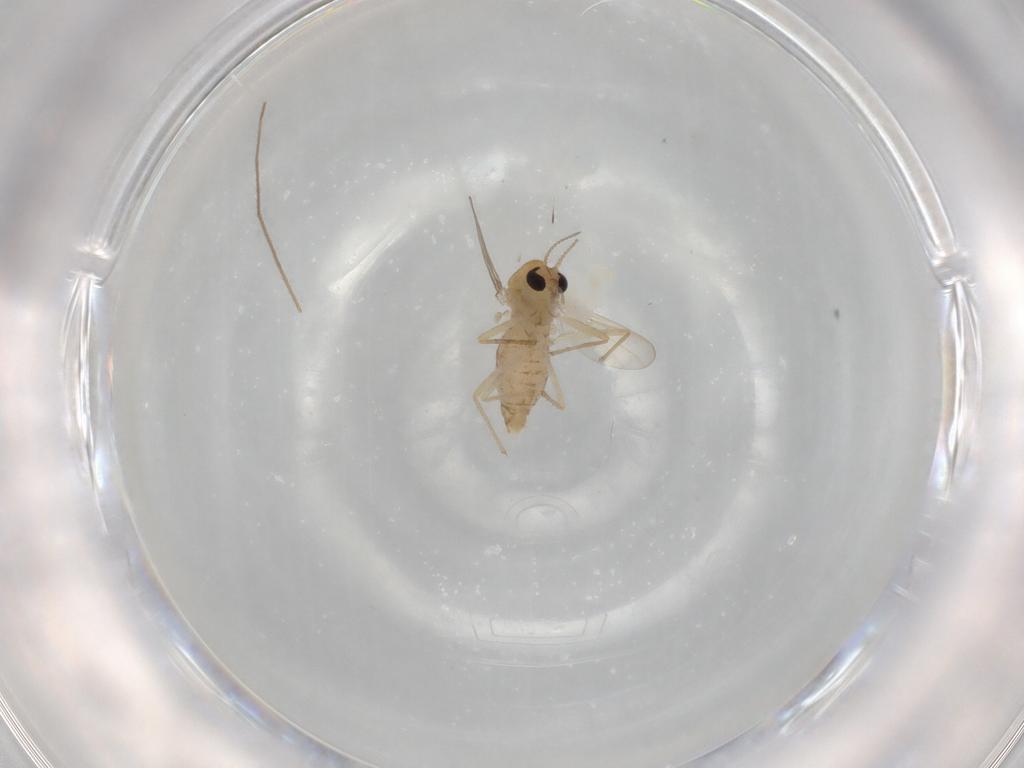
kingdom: Animalia
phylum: Arthropoda
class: Insecta
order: Diptera
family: Chironomidae
